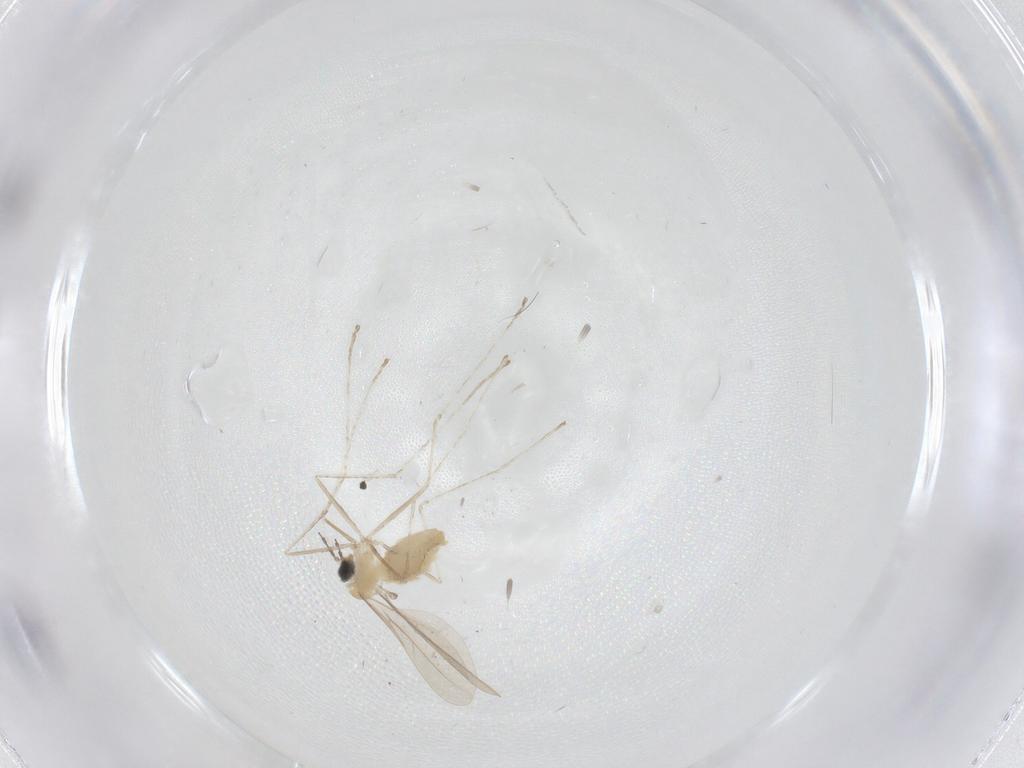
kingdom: Animalia
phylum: Arthropoda
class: Insecta
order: Diptera
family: Cecidomyiidae
